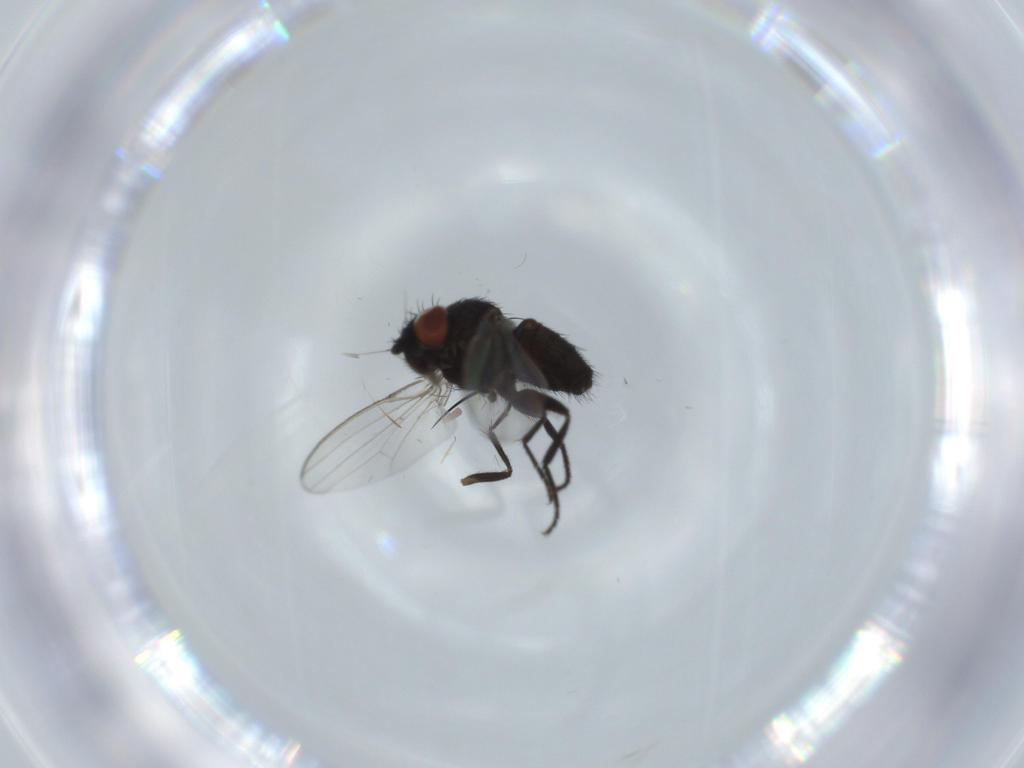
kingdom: Animalia
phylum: Arthropoda
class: Insecta
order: Diptera
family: Milichiidae
